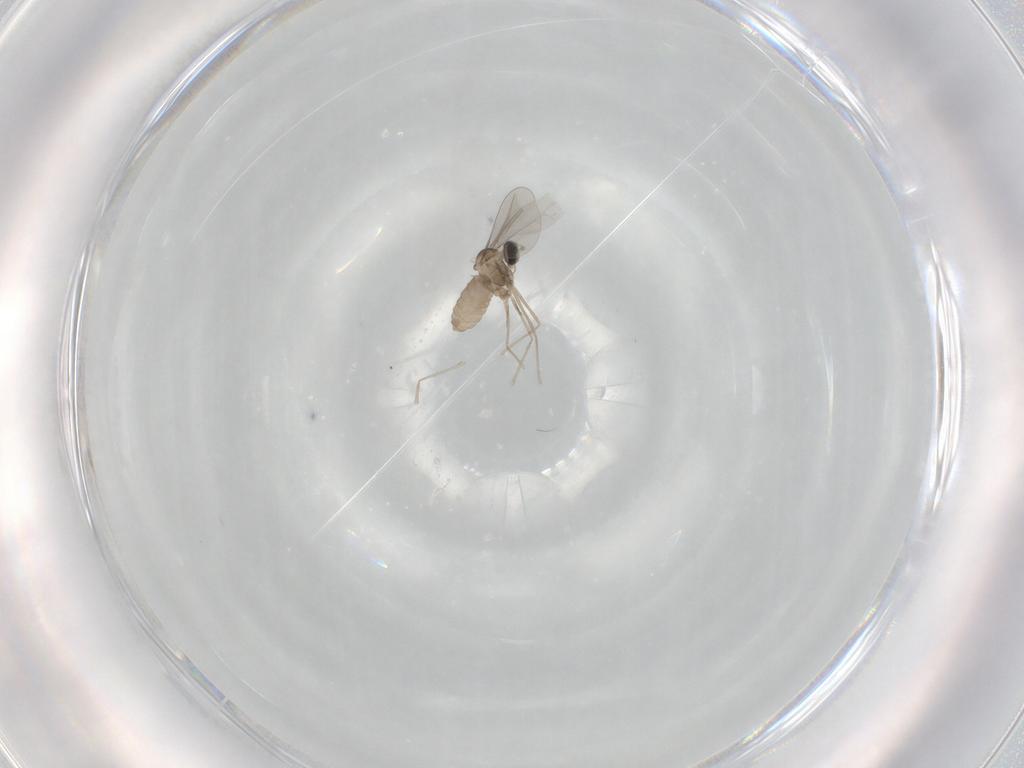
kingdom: Animalia
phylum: Arthropoda
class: Insecta
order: Diptera
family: Cecidomyiidae
